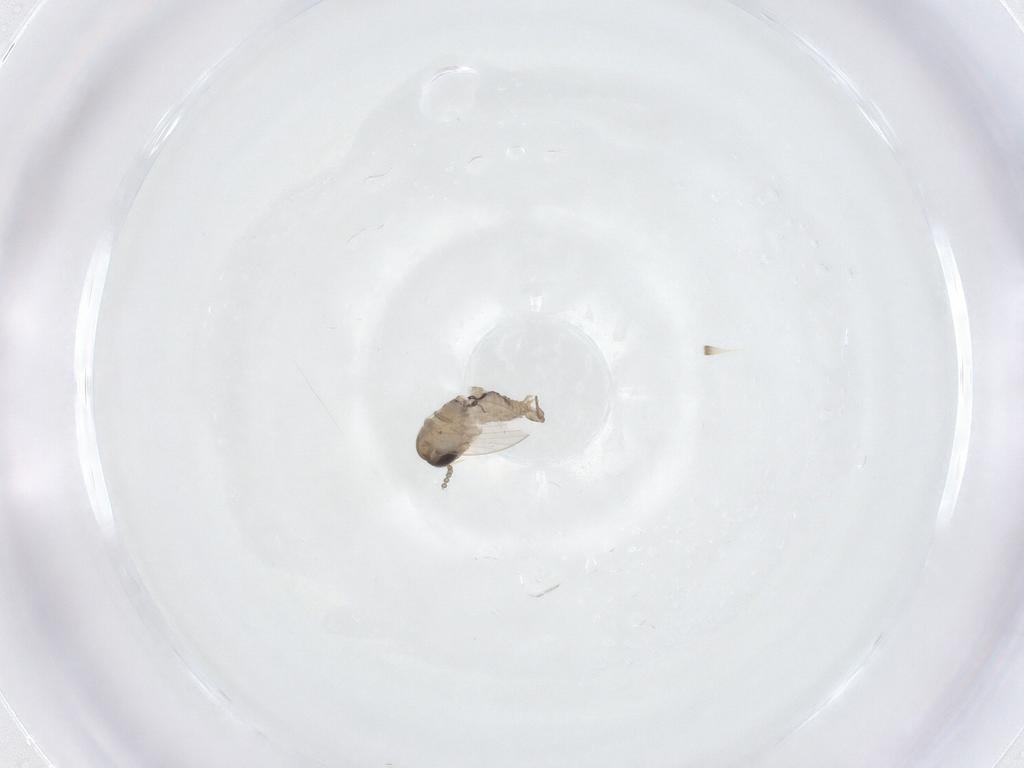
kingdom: Animalia
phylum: Arthropoda
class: Insecta
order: Diptera
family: Psychodidae
